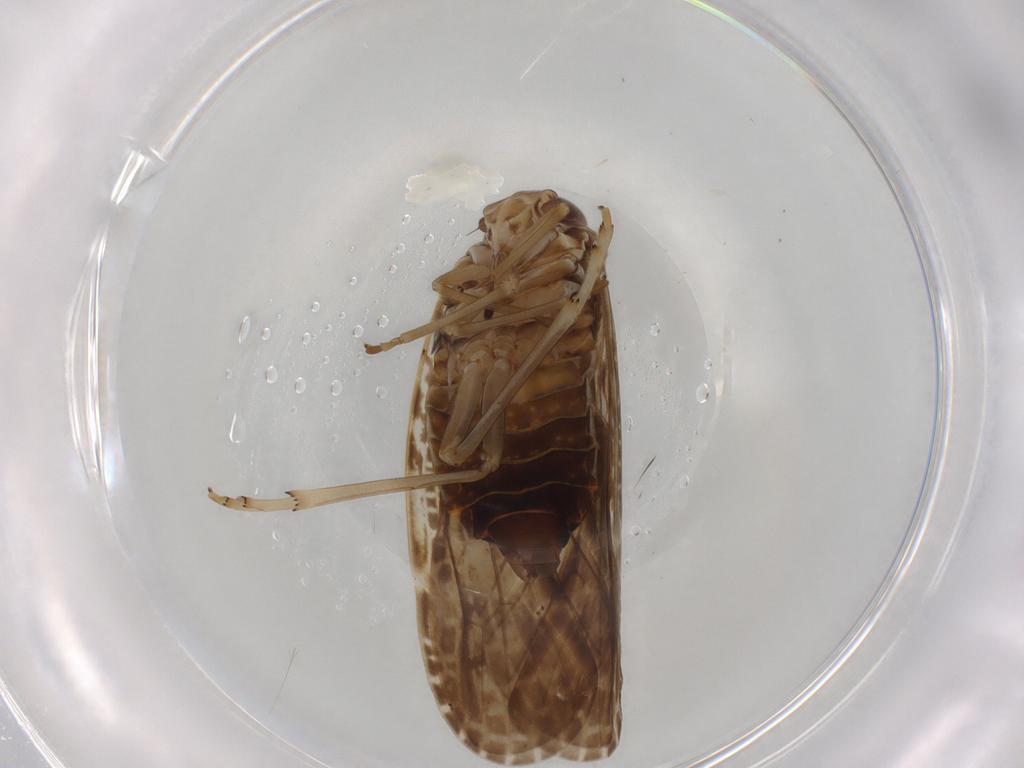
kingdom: Animalia
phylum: Arthropoda
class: Insecta
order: Hemiptera
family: Achilidae
